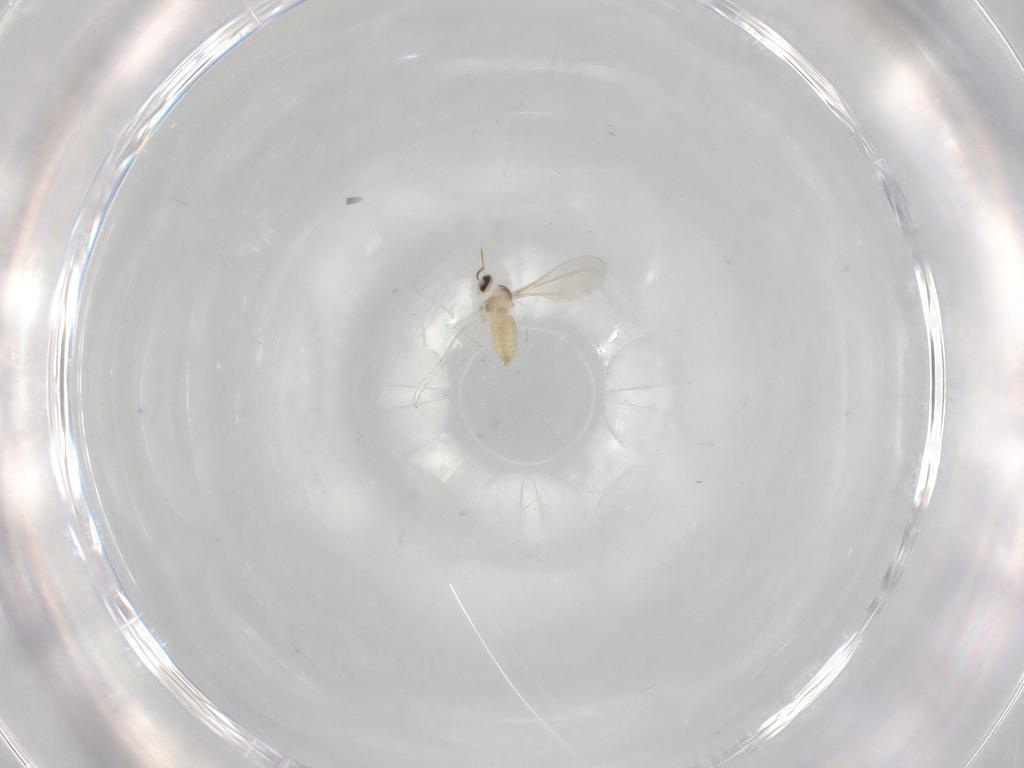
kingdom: Animalia
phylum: Arthropoda
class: Insecta
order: Diptera
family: Cecidomyiidae
